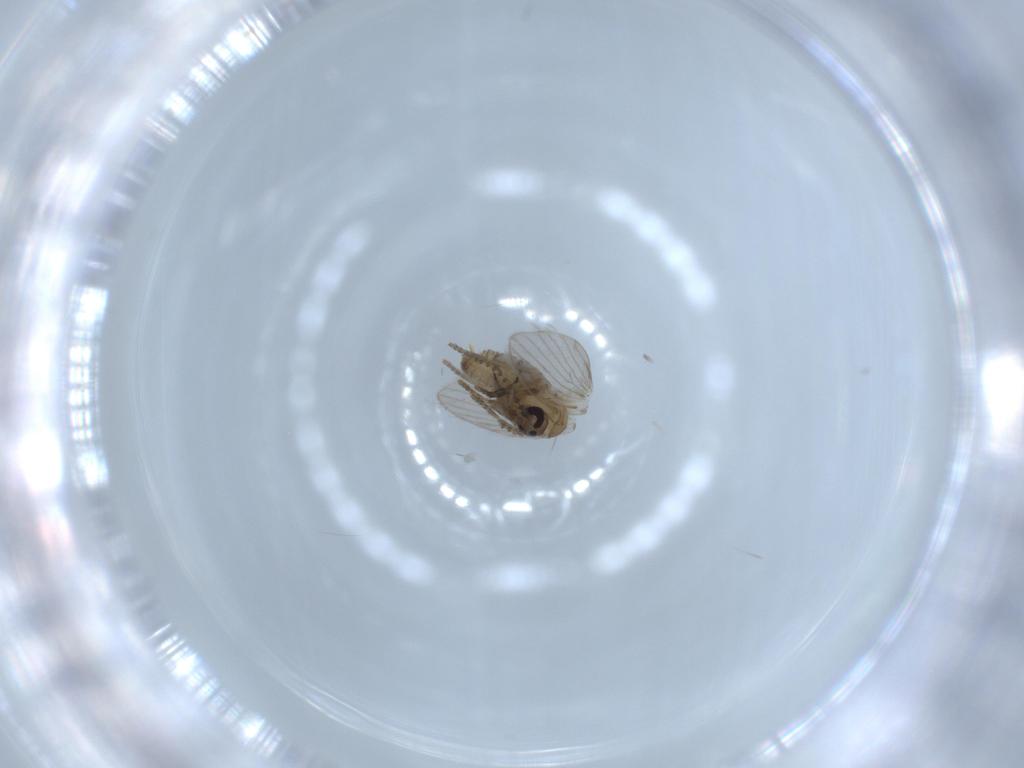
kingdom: Animalia
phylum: Arthropoda
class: Insecta
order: Diptera
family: Psychodidae
